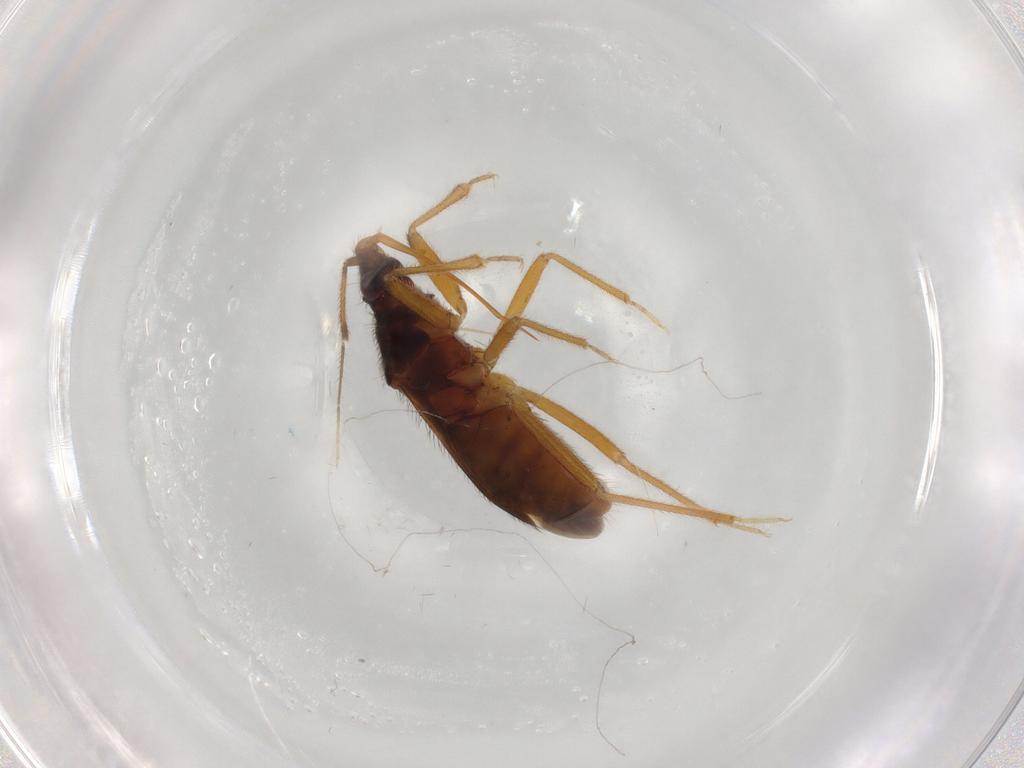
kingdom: Animalia
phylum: Arthropoda
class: Insecta
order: Hemiptera
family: Anthocoridae
